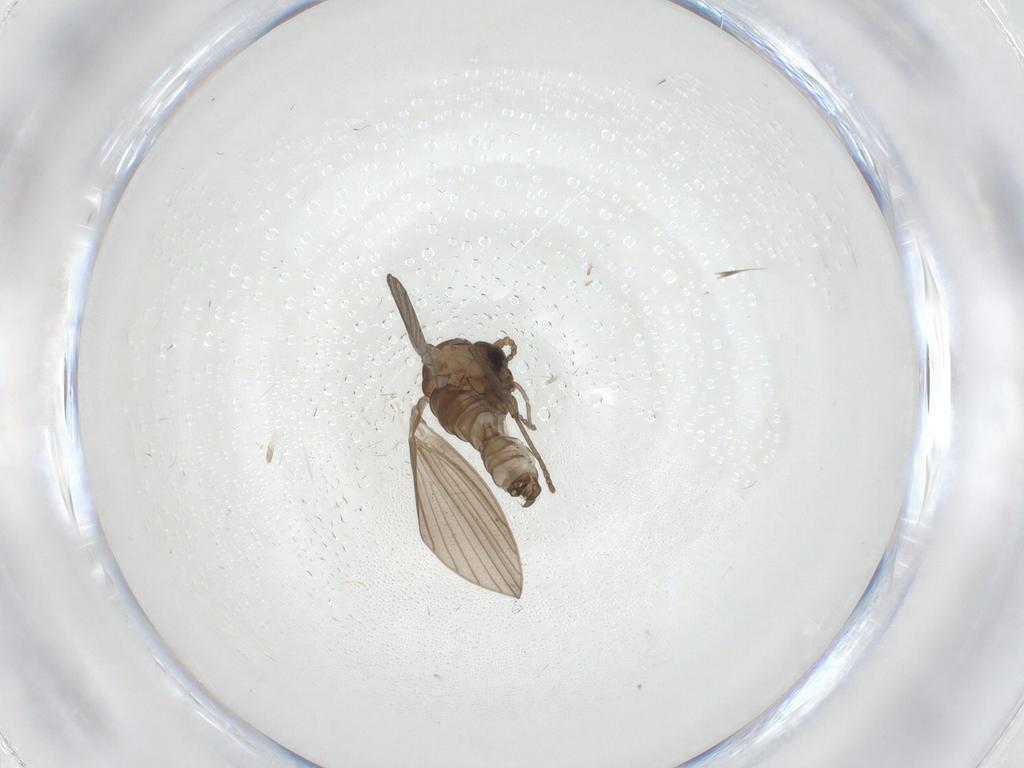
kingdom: Animalia
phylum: Arthropoda
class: Insecta
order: Diptera
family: Psychodidae
